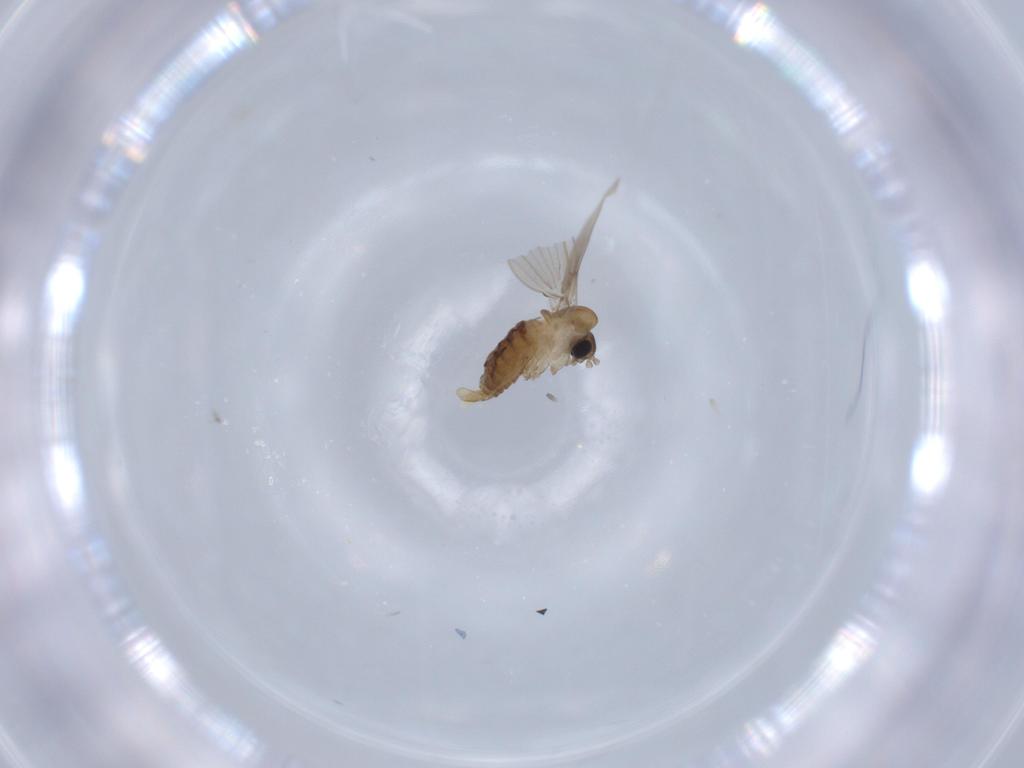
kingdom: Animalia
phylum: Arthropoda
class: Insecta
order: Diptera
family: Psychodidae
